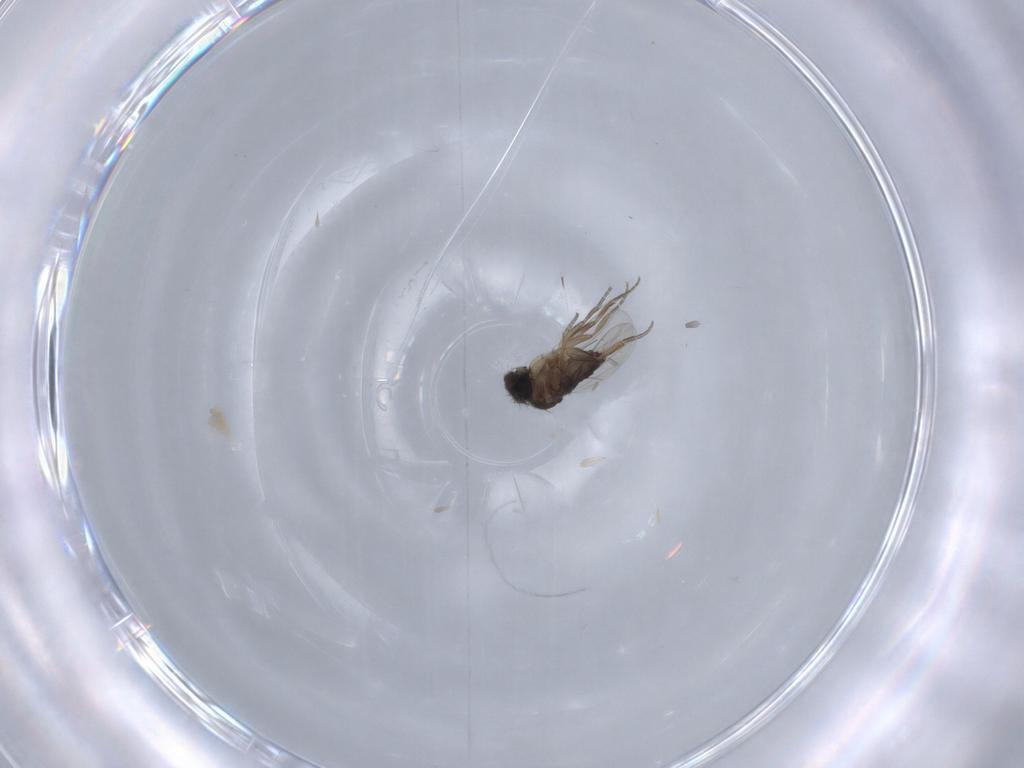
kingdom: Animalia
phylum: Arthropoda
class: Insecta
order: Diptera
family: Phoridae
